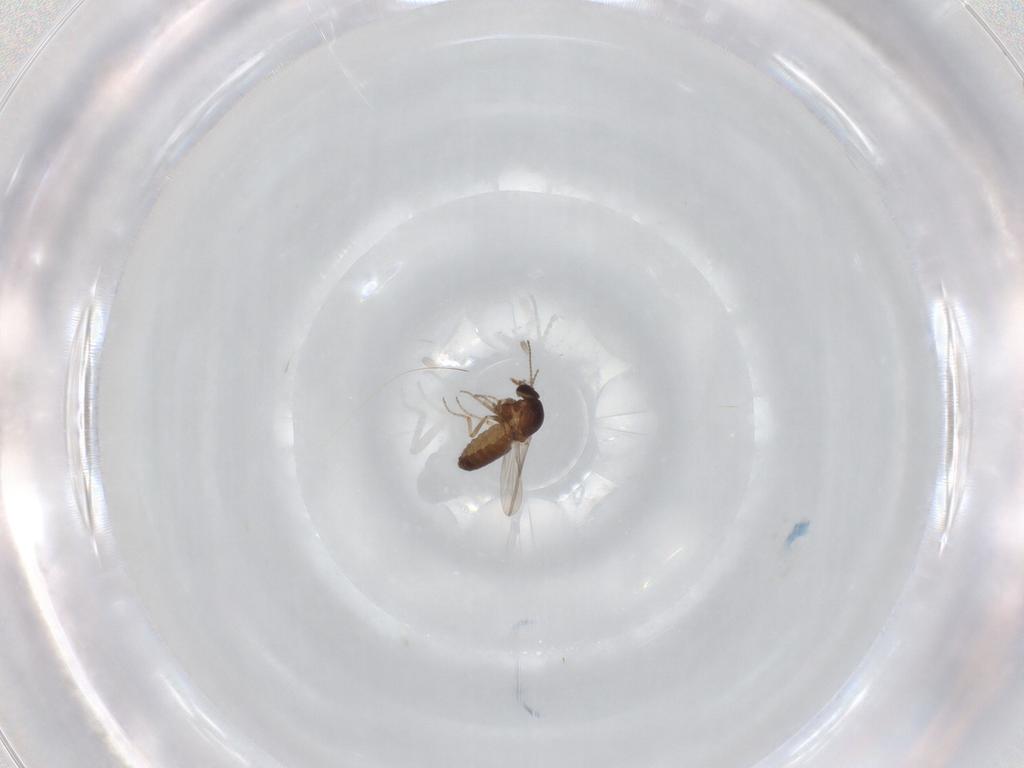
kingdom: Animalia
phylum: Arthropoda
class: Insecta
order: Diptera
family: Ceratopogonidae
